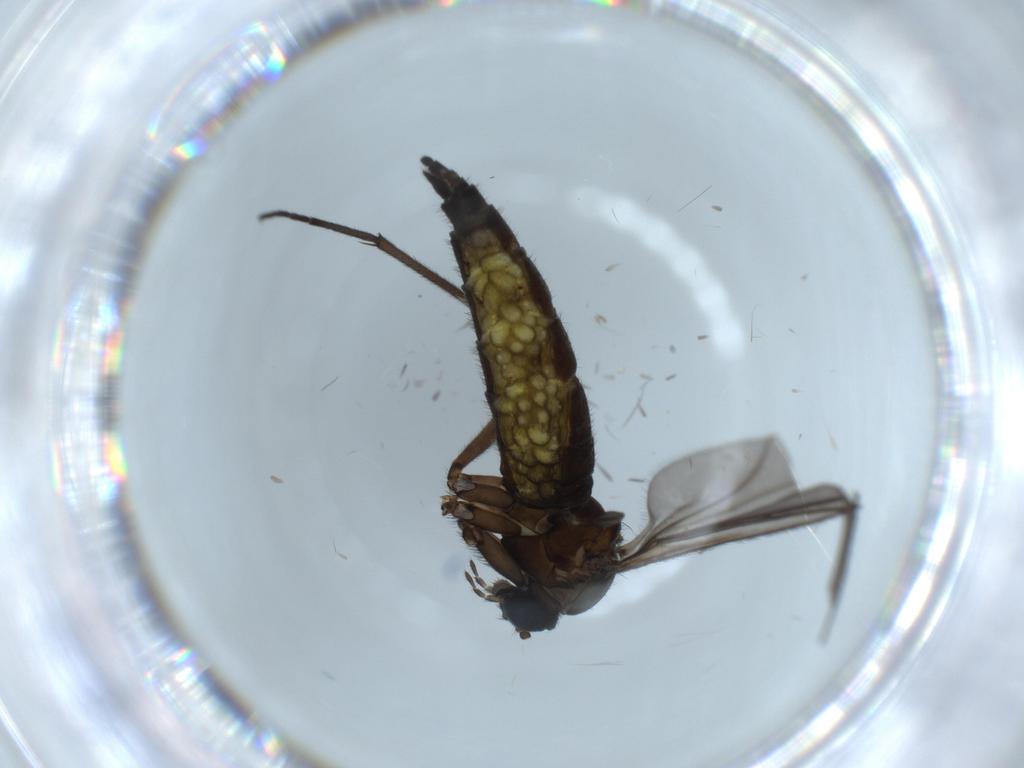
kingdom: Animalia
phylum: Arthropoda
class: Insecta
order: Diptera
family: Sciaridae
